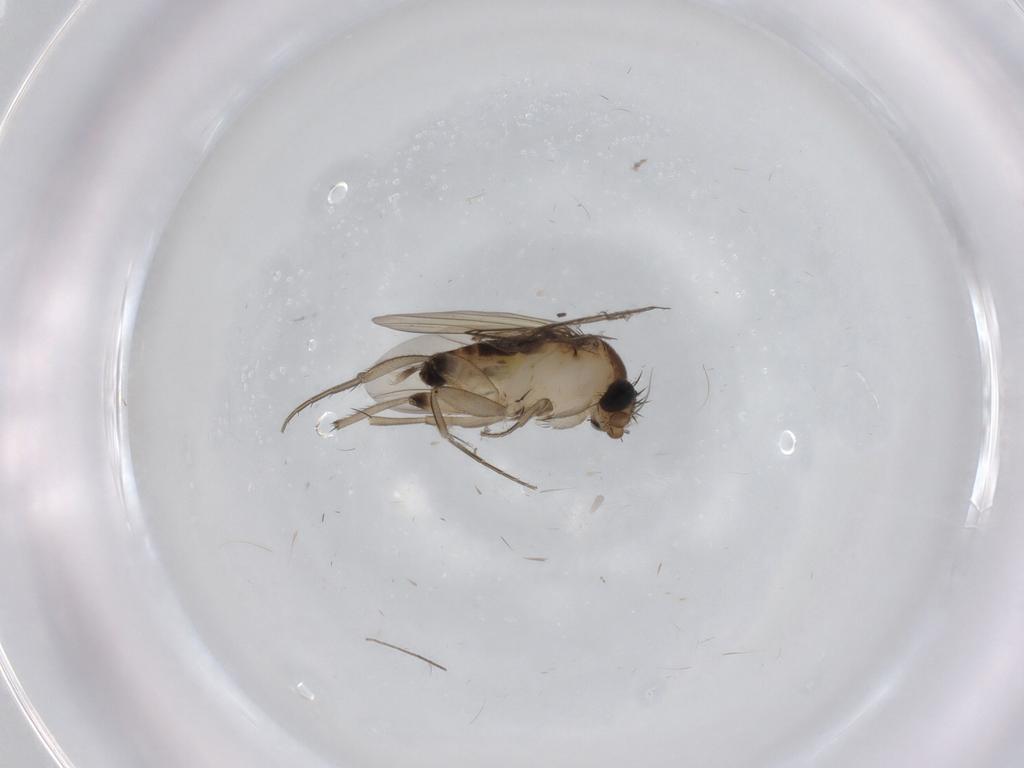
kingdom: Animalia
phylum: Arthropoda
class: Insecta
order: Diptera
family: Phoridae
